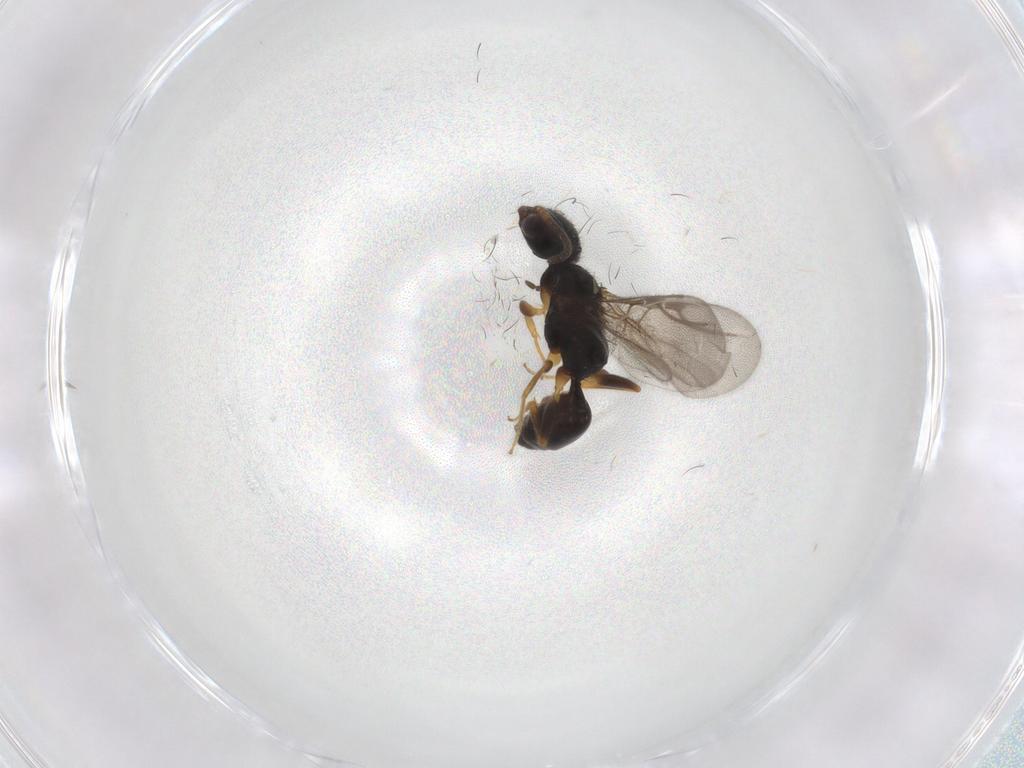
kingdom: Animalia
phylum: Arthropoda
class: Insecta
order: Hymenoptera
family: Bethylidae
